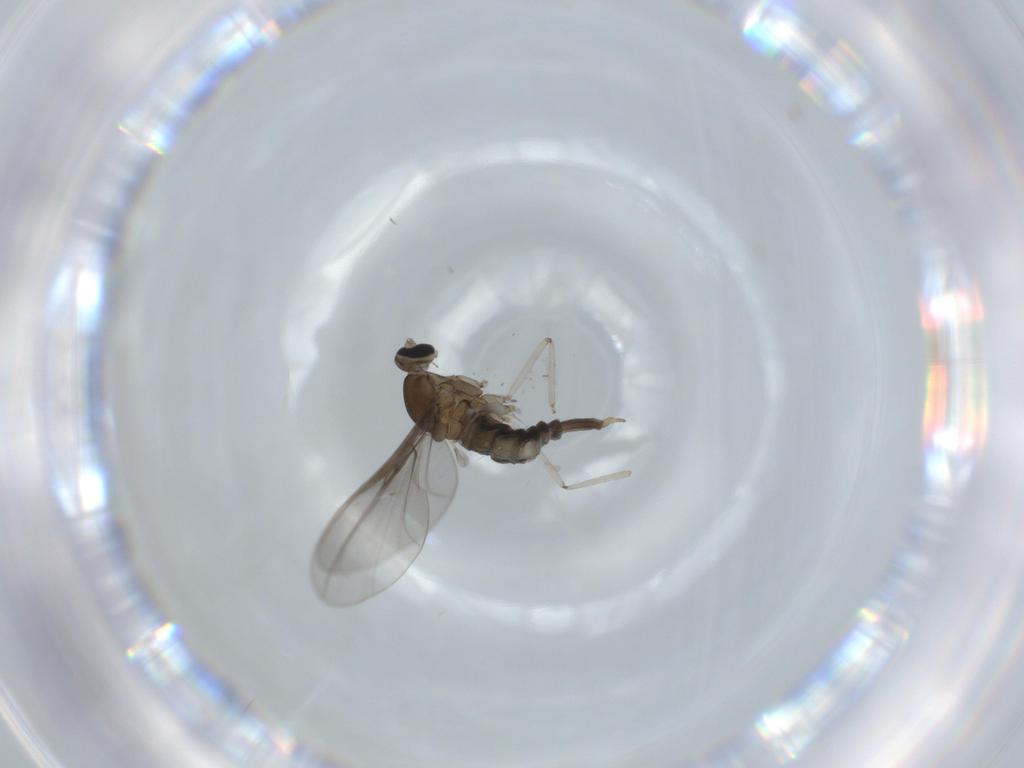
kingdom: Animalia
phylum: Arthropoda
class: Insecta
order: Diptera
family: Cecidomyiidae
